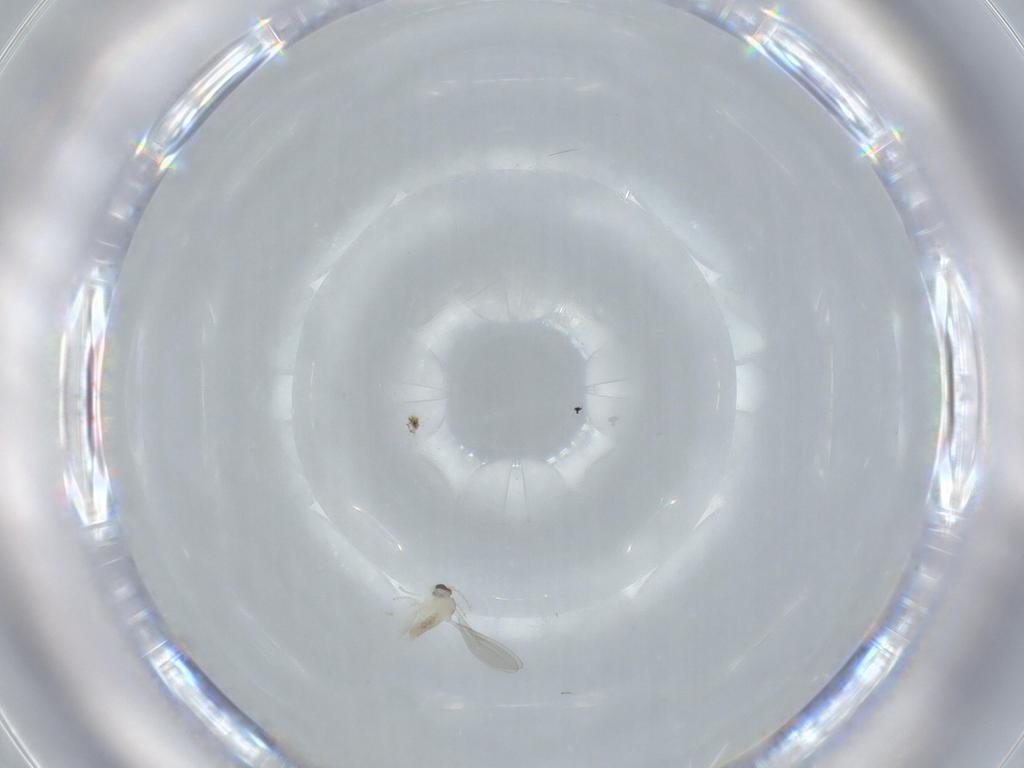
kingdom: Animalia
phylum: Arthropoda
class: Insecta
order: Diptera
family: Cecidomyiidae
